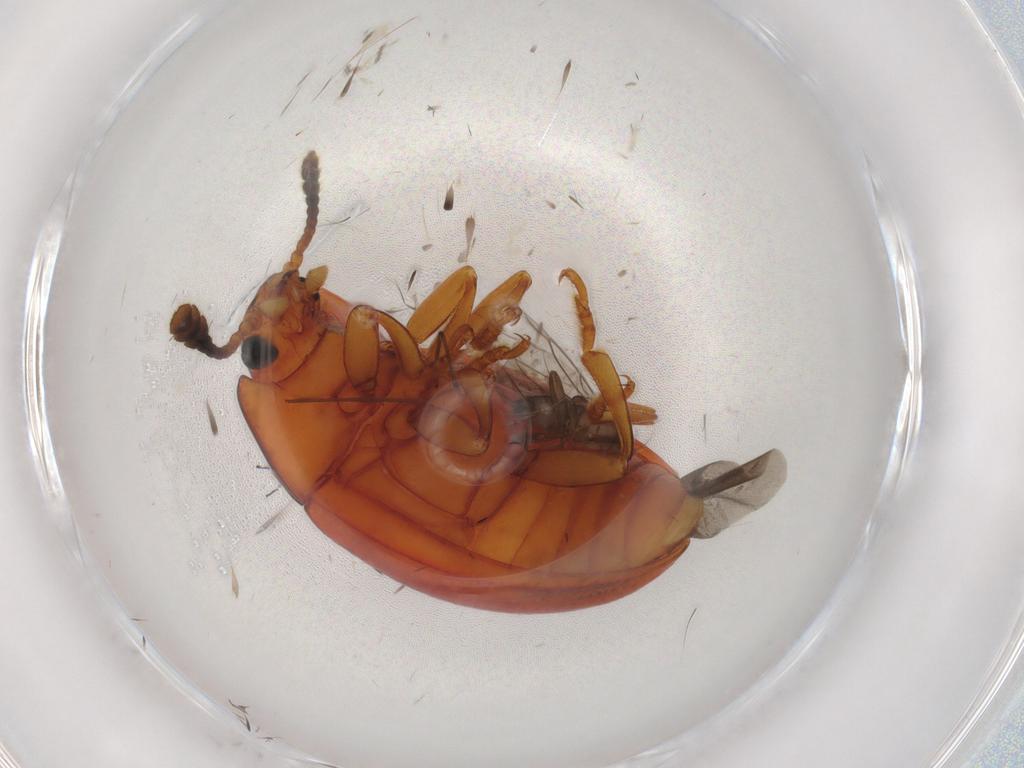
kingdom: Animalia
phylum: Arthropoda
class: Insecta
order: Coleoptera
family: Erotylidae
